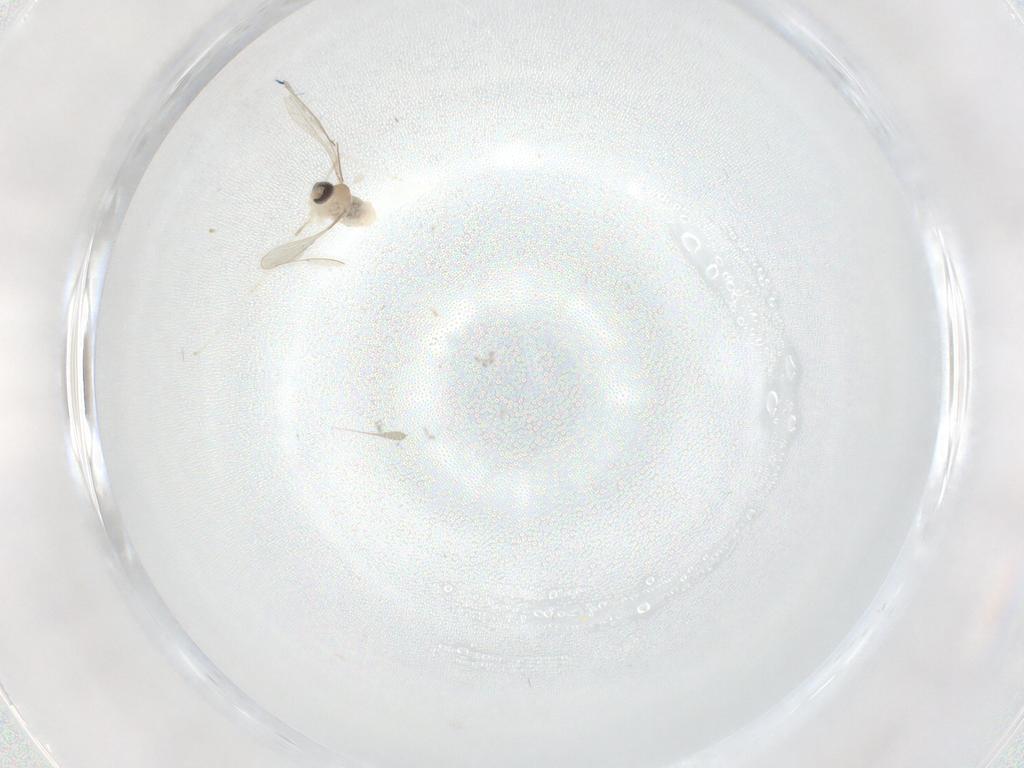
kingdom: Animalia
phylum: Arthropoda
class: Insecta
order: Diptera
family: Cecidomyiidae
